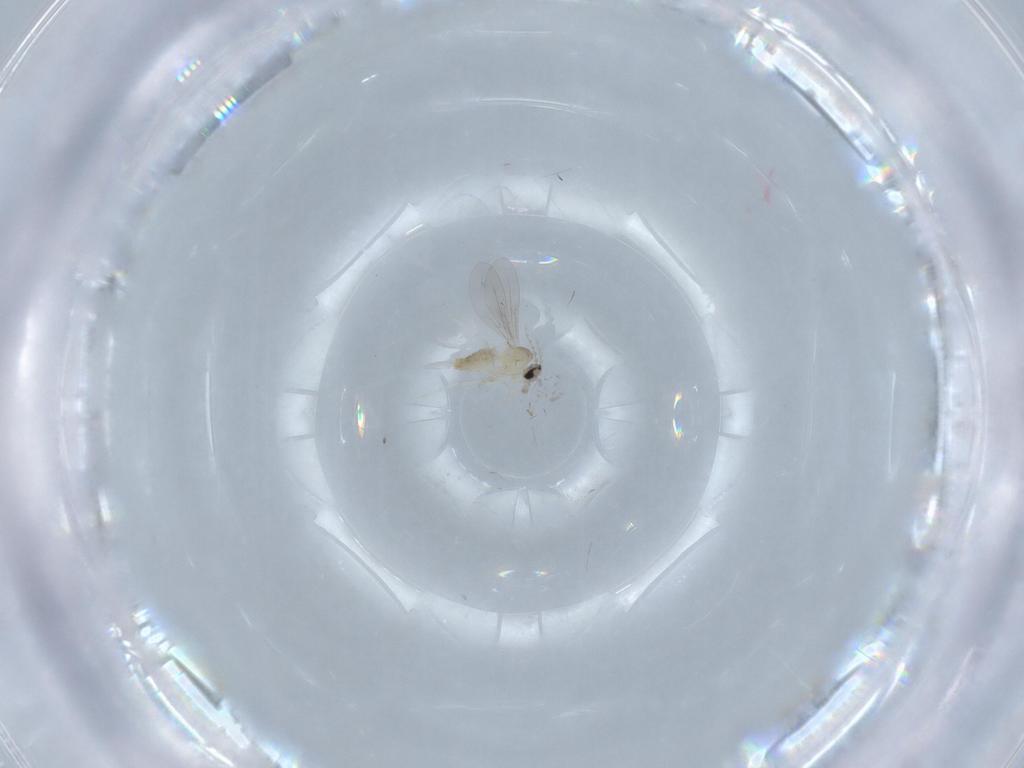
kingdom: Animalia
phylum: Arthropoda
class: Insecta
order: Diptera
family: Cecidomyiidae
